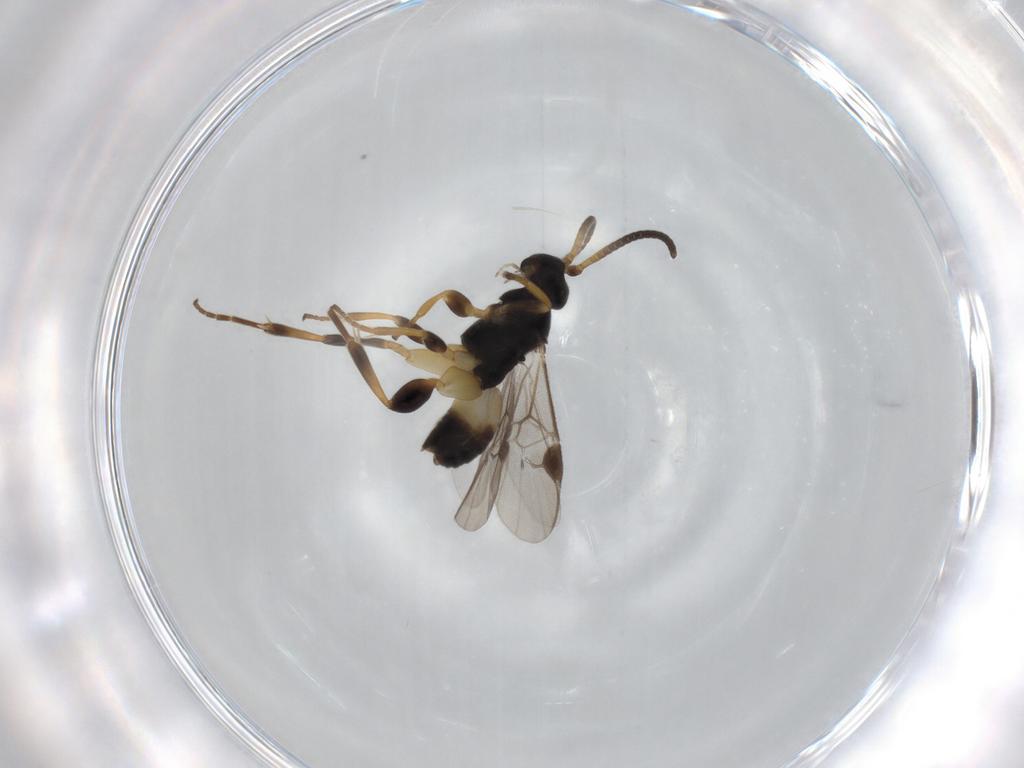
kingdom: Animalia
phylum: Arthropoda
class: Insecta
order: Hymenoptera
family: Braconidae
